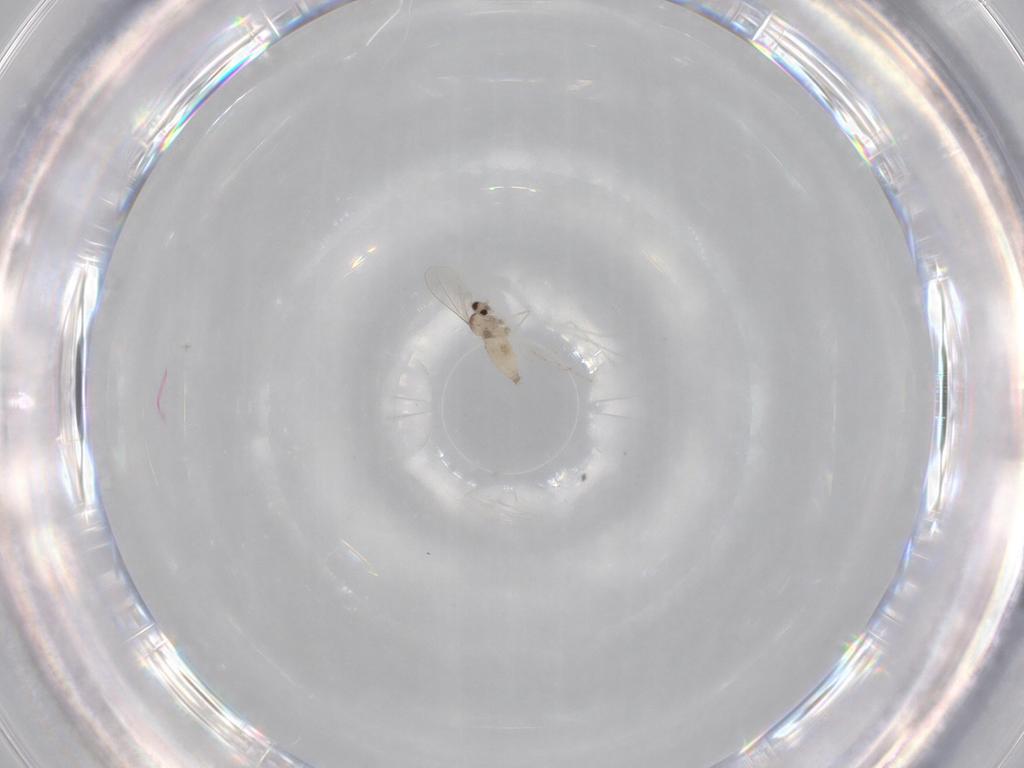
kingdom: Animalia
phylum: Arthropoda
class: Insecta
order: Diptera
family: Cecidomyiidae
